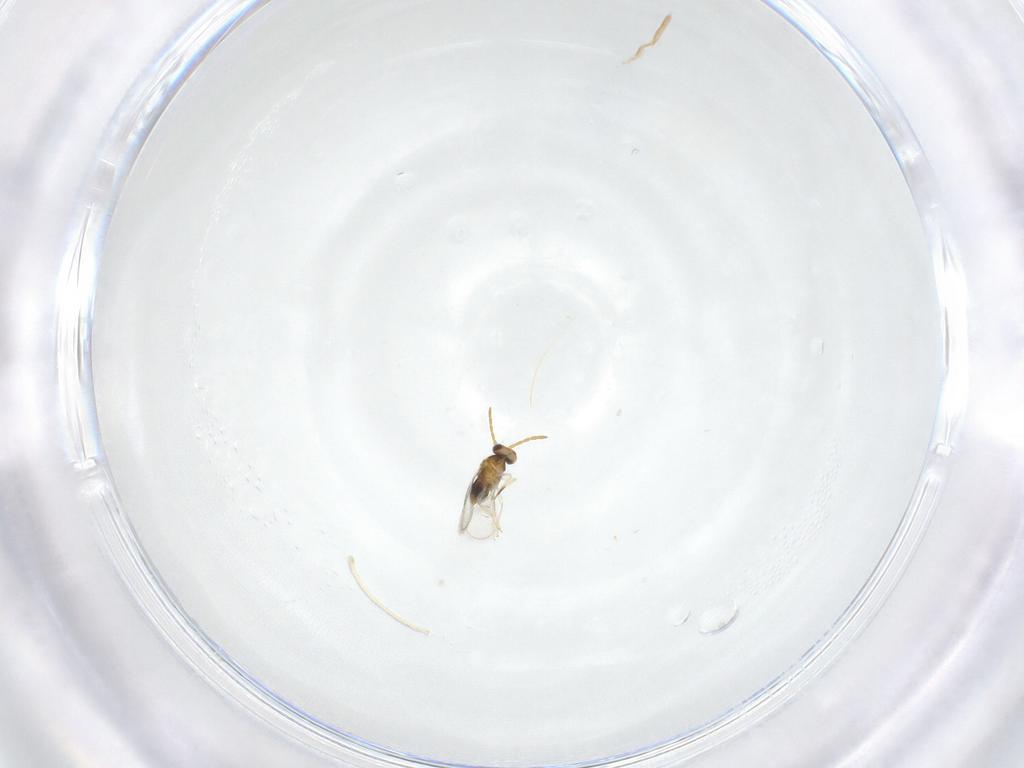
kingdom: Animalia
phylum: Arthropoda
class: Insecta
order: Hymenoptera
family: Aphelinidae
